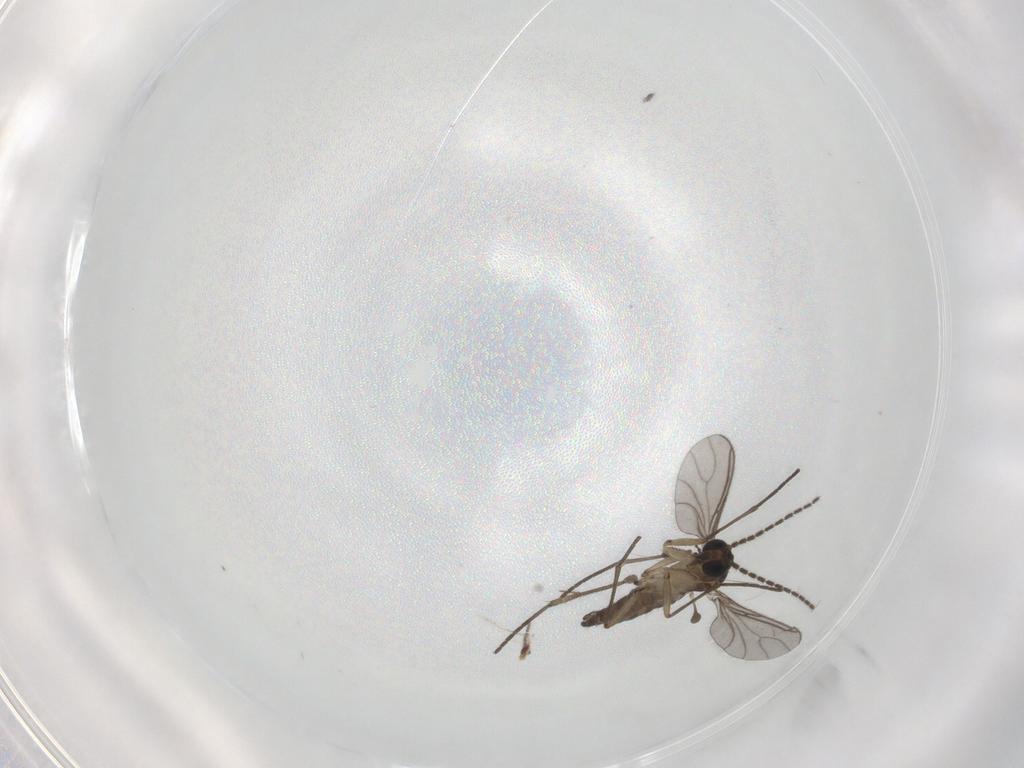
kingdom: Animalia
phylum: Arthropoda
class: Insecta
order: Diptera
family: Sciaridae
